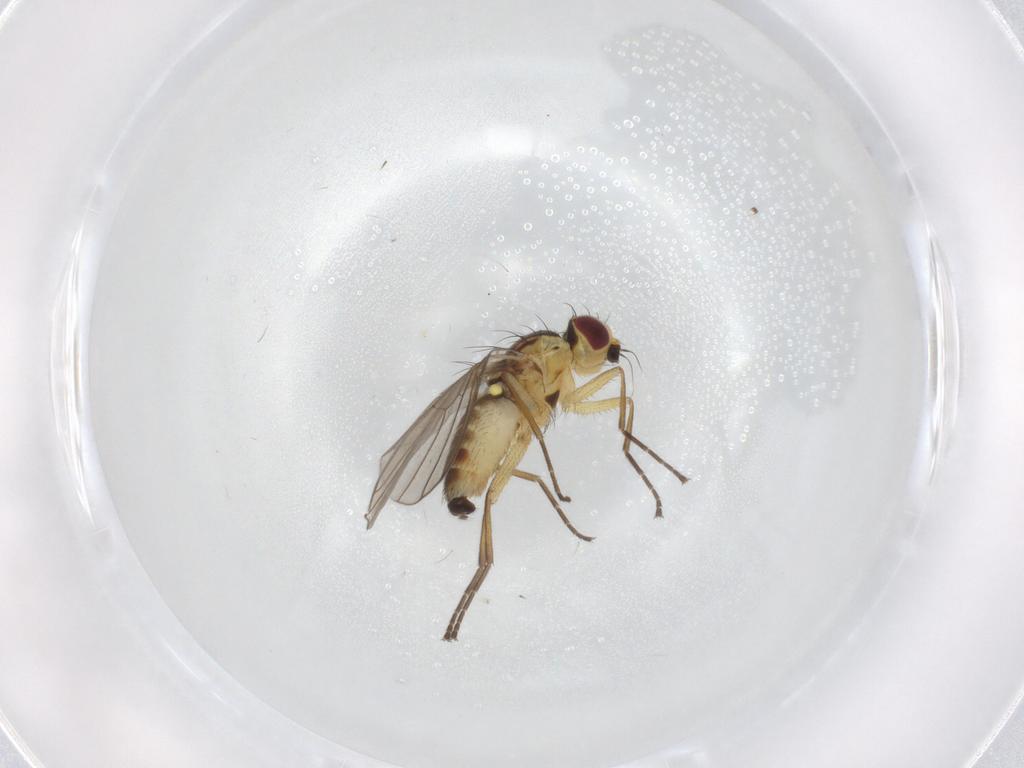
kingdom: Animalia
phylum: Arthropoda
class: Insecta
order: Diptera
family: Agromyzidae
